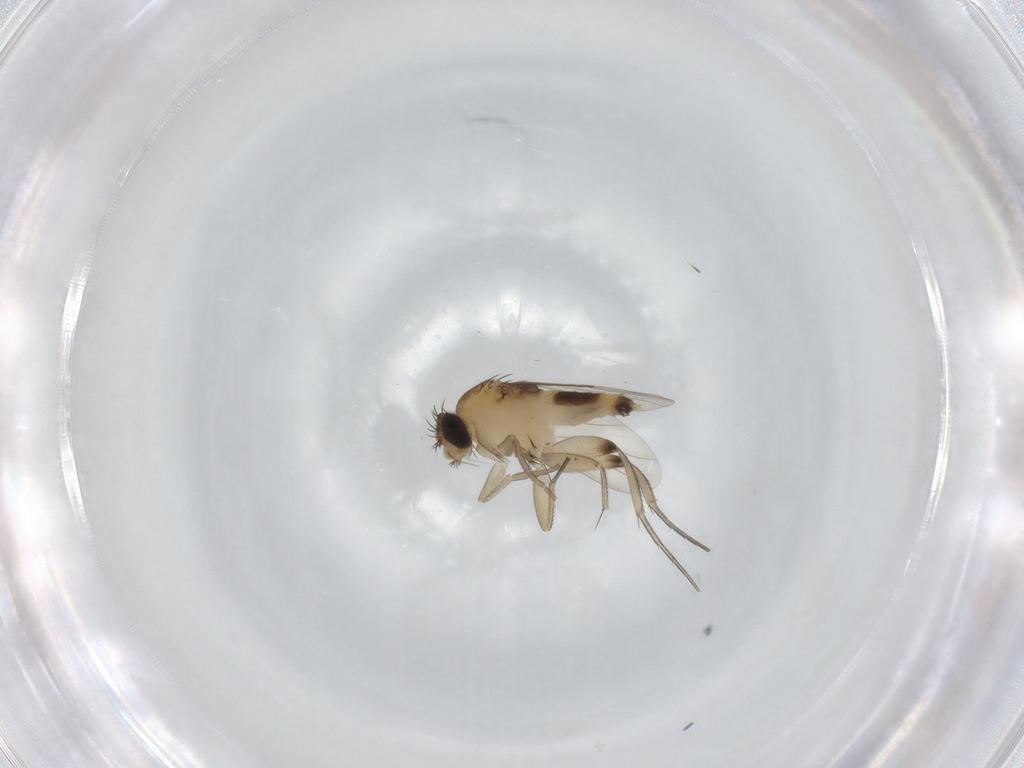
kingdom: Animalia
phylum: Arthropoda
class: Insecta
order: Diptera
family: Phoridae
